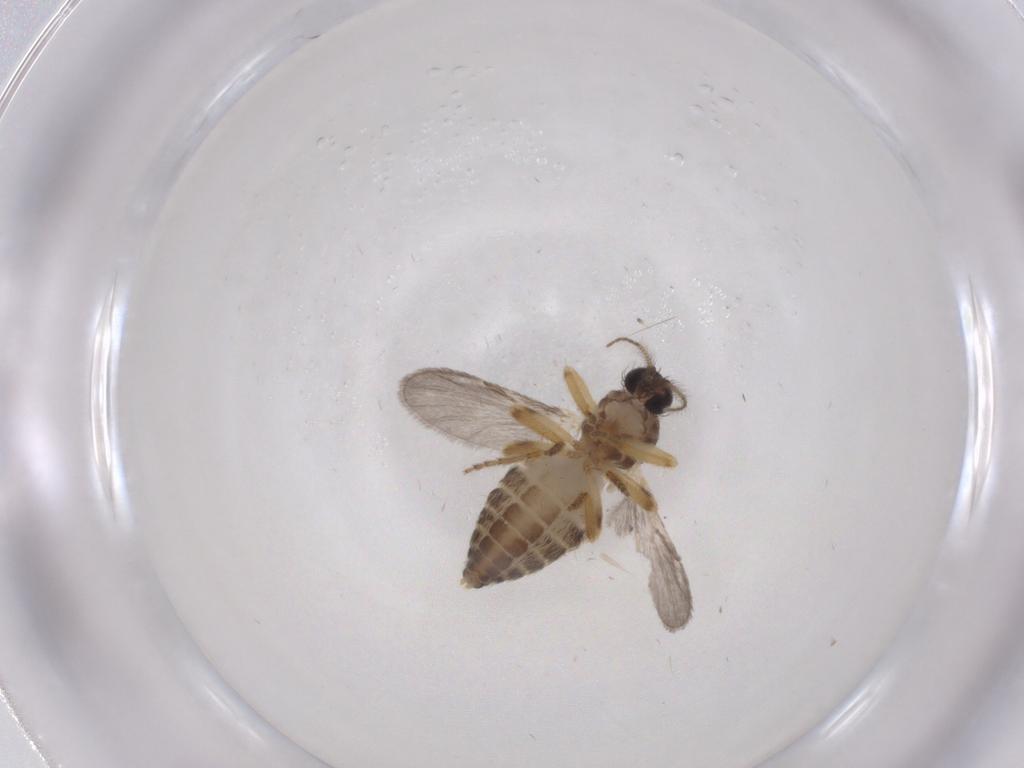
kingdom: Animalia
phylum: Arthropoda
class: Insecta
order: Diptera
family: Ceratopogonidae
